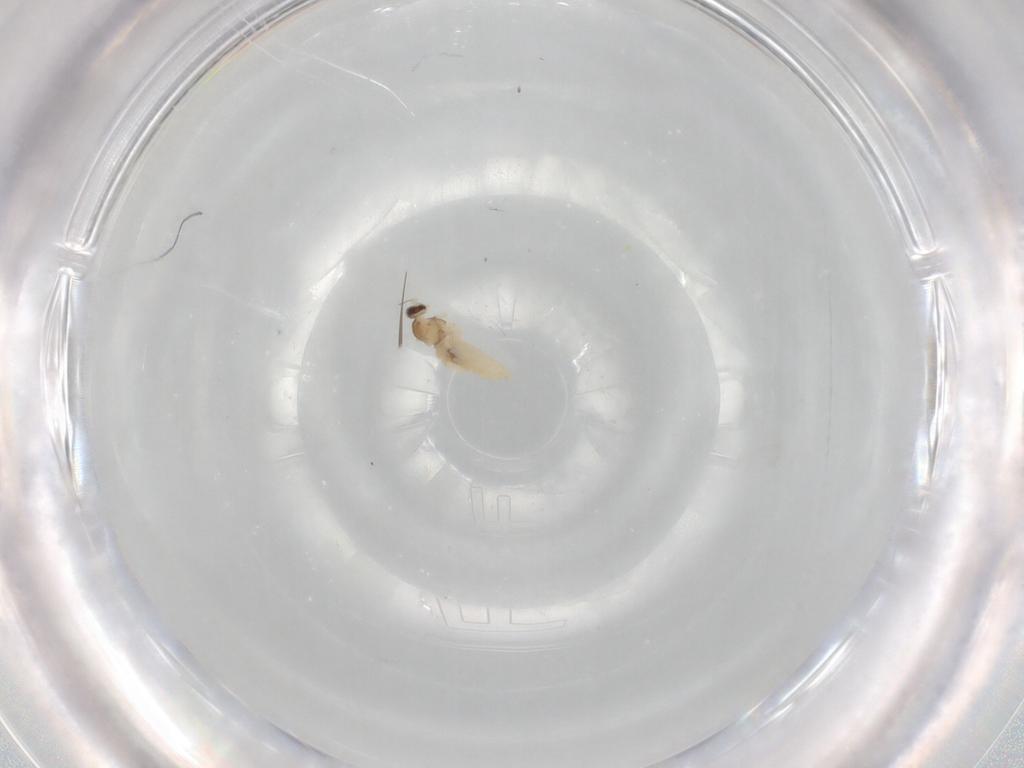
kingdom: Animalia
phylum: Arthropoda
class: Insecta
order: Diptera
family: Cecidomyiidae
